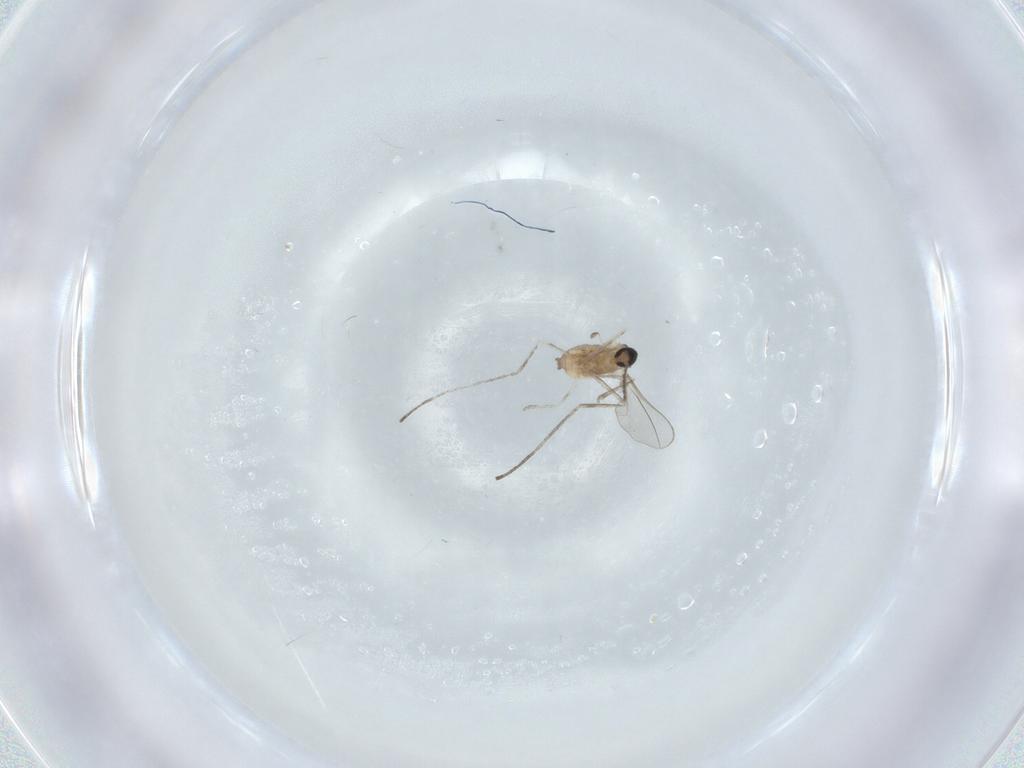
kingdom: Animalia
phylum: Arthropoda
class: Insecta
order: Diptera
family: Cecidomyiidae
